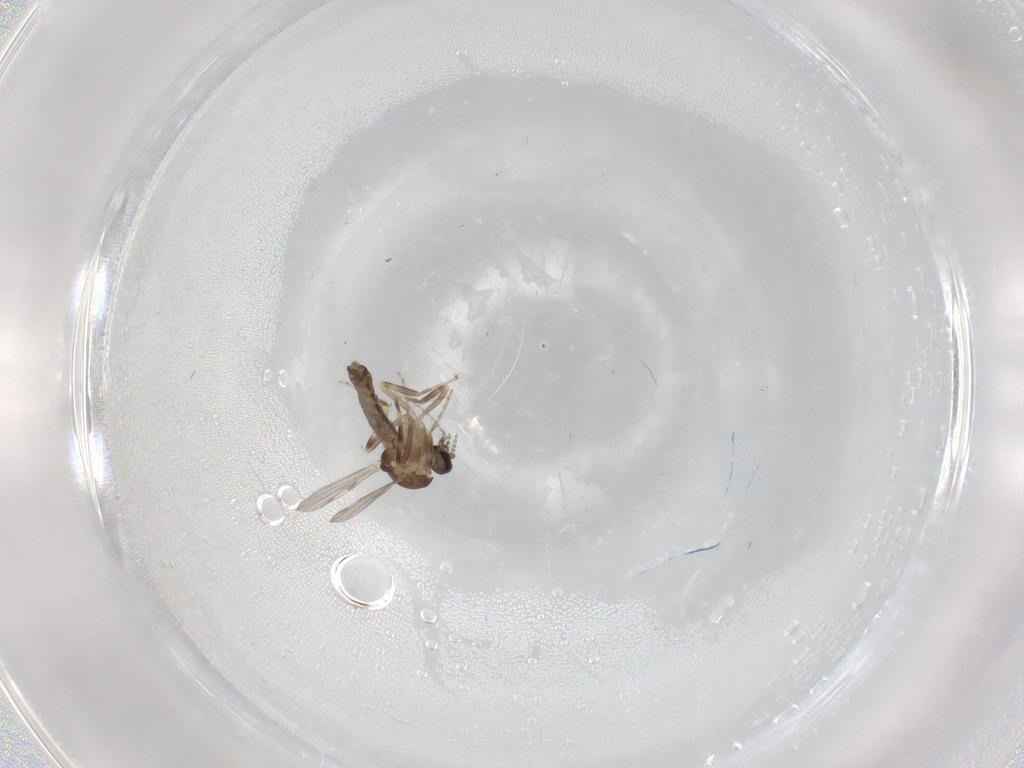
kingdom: Animalia
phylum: Arthropoda
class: Insecta
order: Diptera
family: Ceratopogonidae
